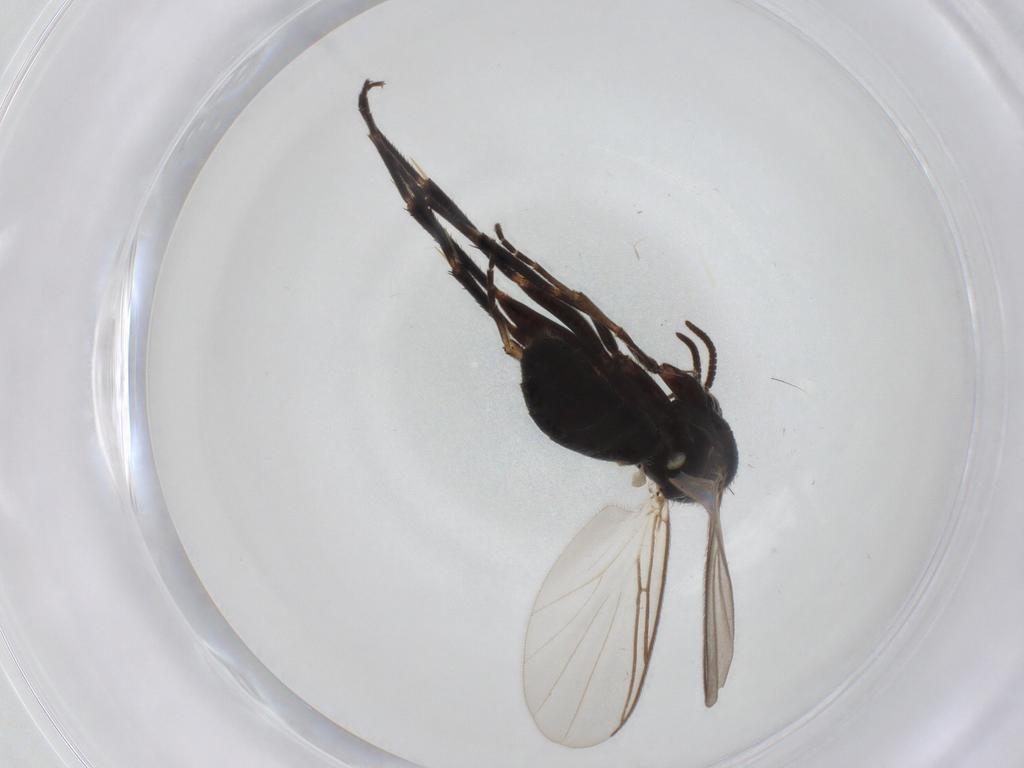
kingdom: Animalia
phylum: Arthropoda
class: Insecta
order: Diptera
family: Mycetophilidae
